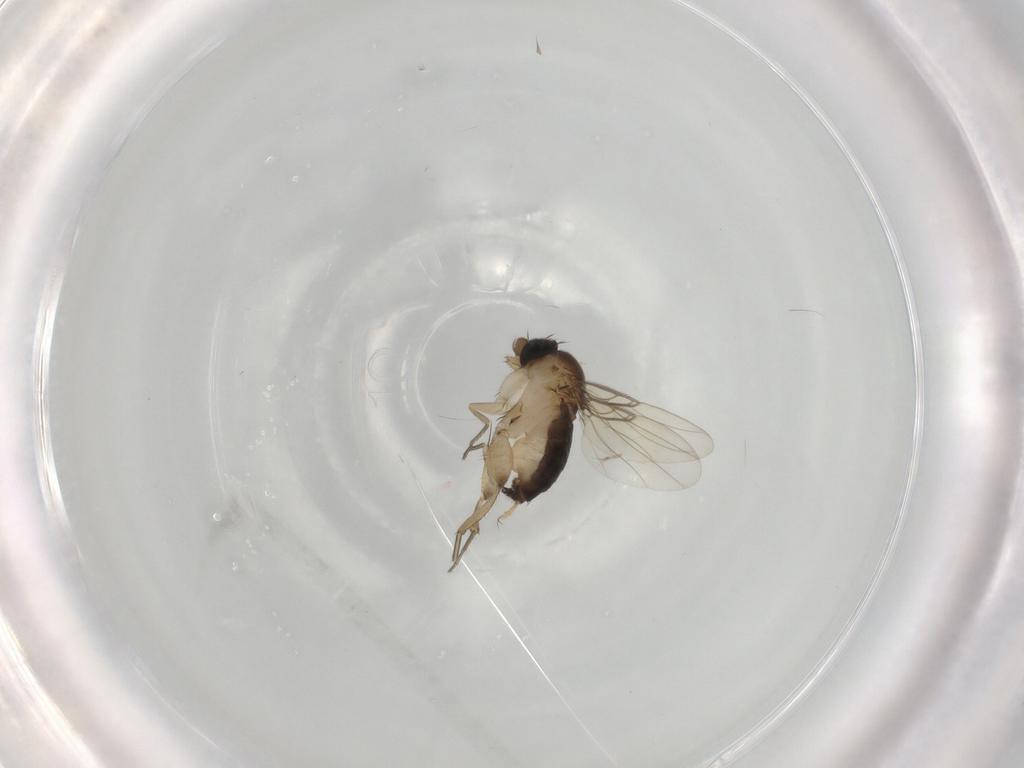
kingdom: Animalia
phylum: Arthropoda
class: Insecta
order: Diptera
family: Phoridae
